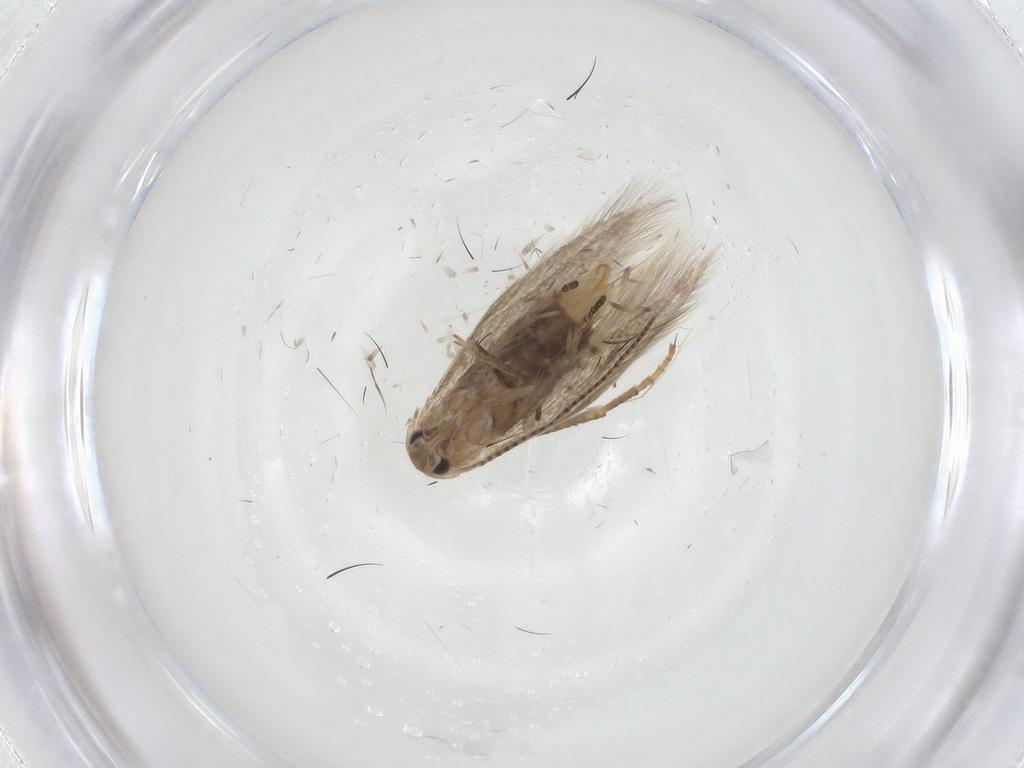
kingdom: Animalia
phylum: Arthropoda
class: Insecta
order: Lepidoptera
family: Bucculatricidae
